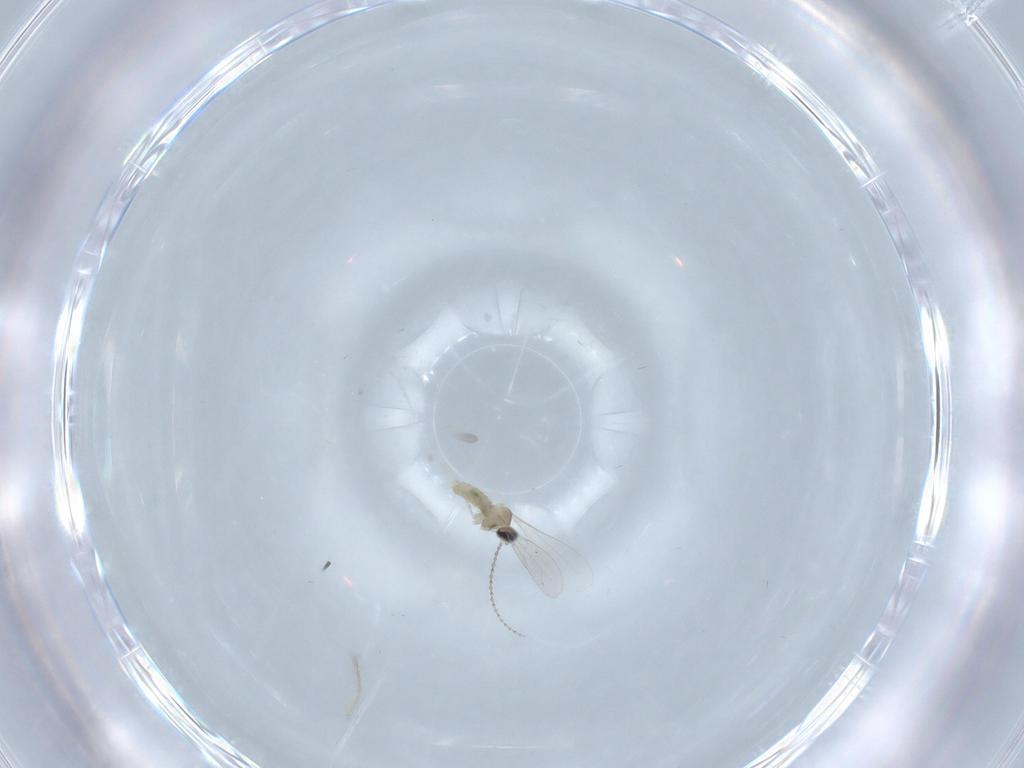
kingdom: Animalia
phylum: Arthropoda
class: Insecta
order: Diptera
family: Cecidomyiidae
